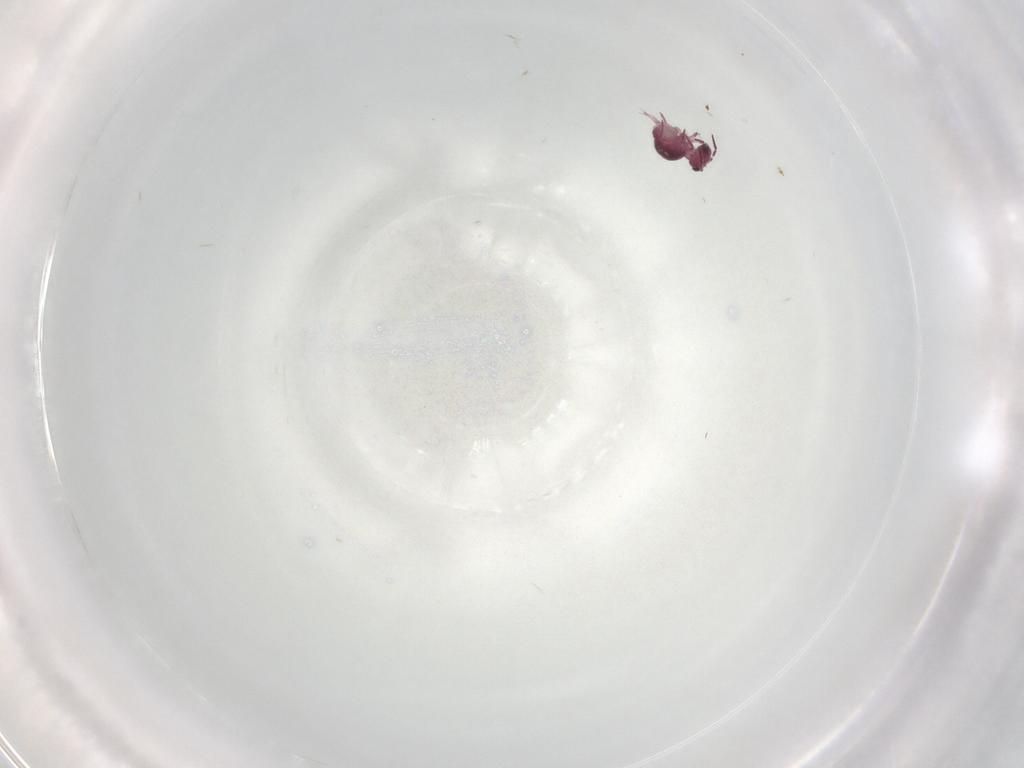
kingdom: Animalia
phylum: Arthropoda
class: Collembola
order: Symphypleona
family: Sminthurididae
